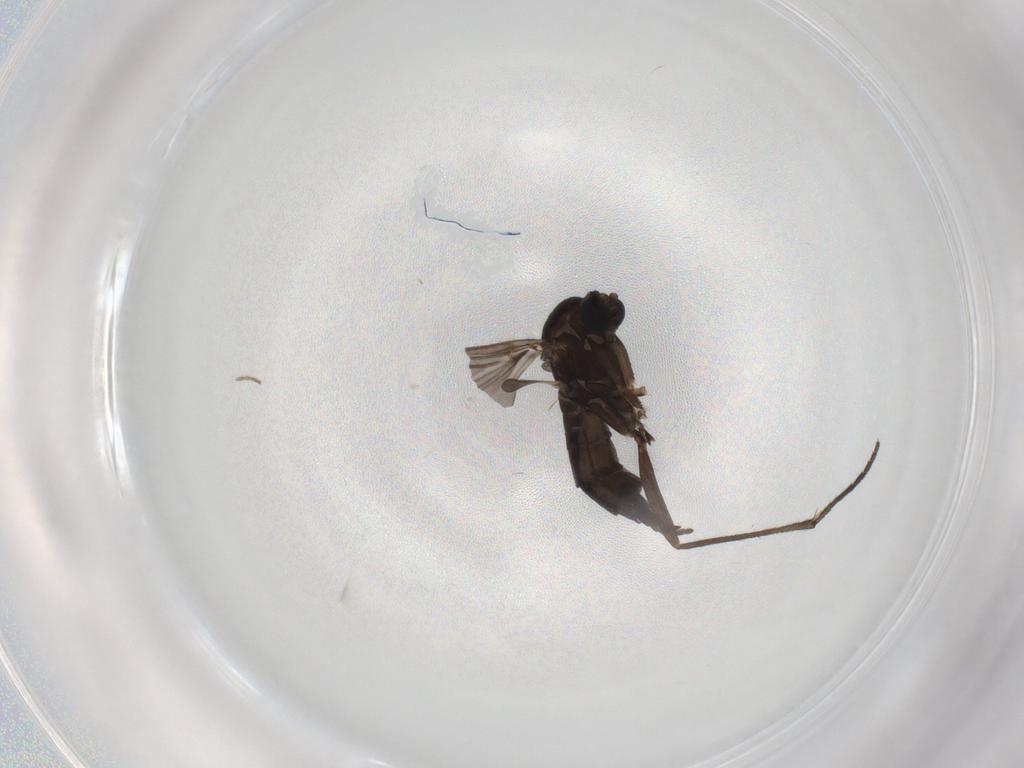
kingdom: Animalia
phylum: Arthropoda
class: Insecta
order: Diptera
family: Sciaridae
